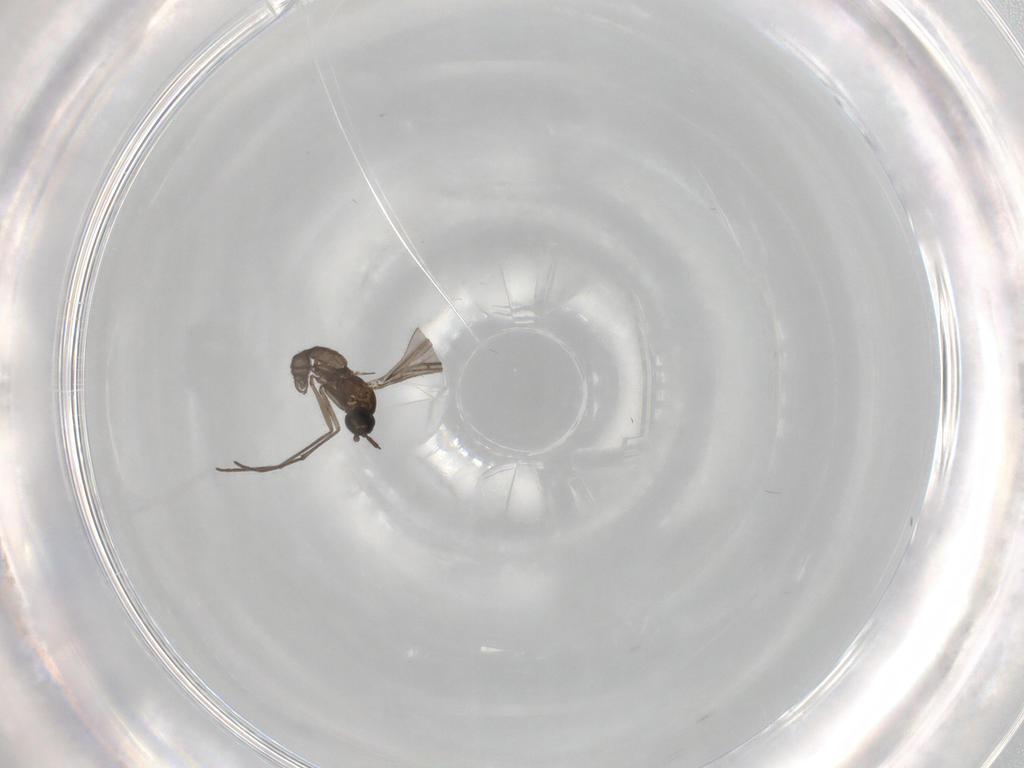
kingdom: Animalia
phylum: Arthropoda
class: Insecta
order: Diptera
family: Sciaridae
